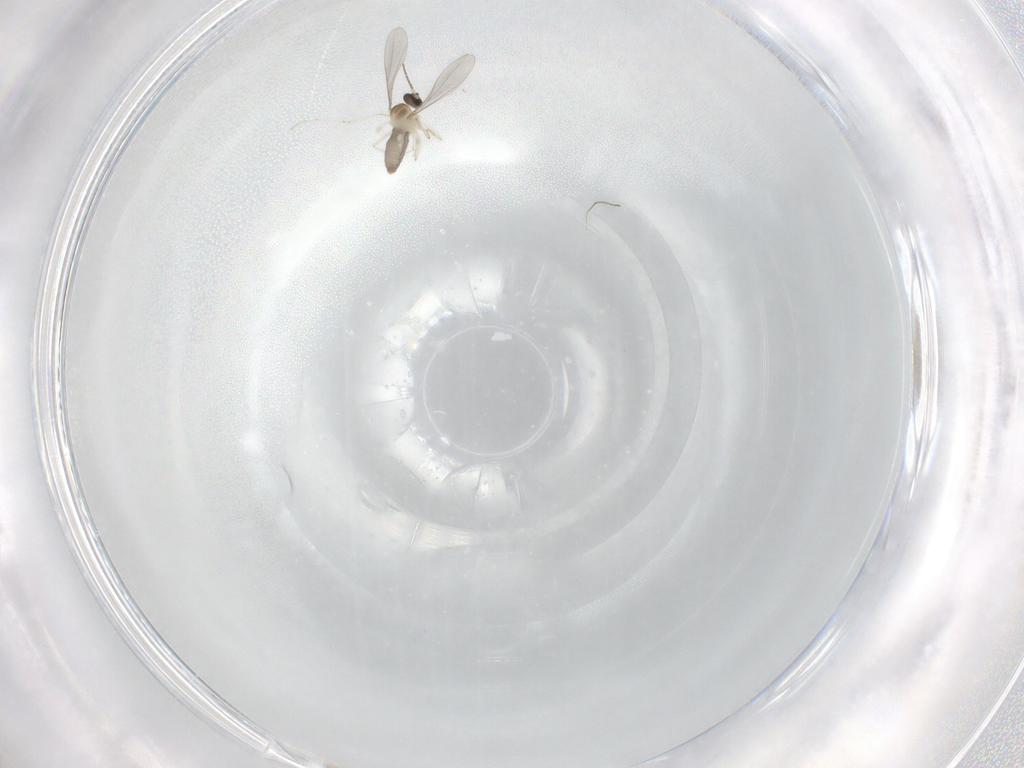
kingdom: Animalia
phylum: Arthropoda
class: Insecta
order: Diptera
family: Cecidomyiidae
